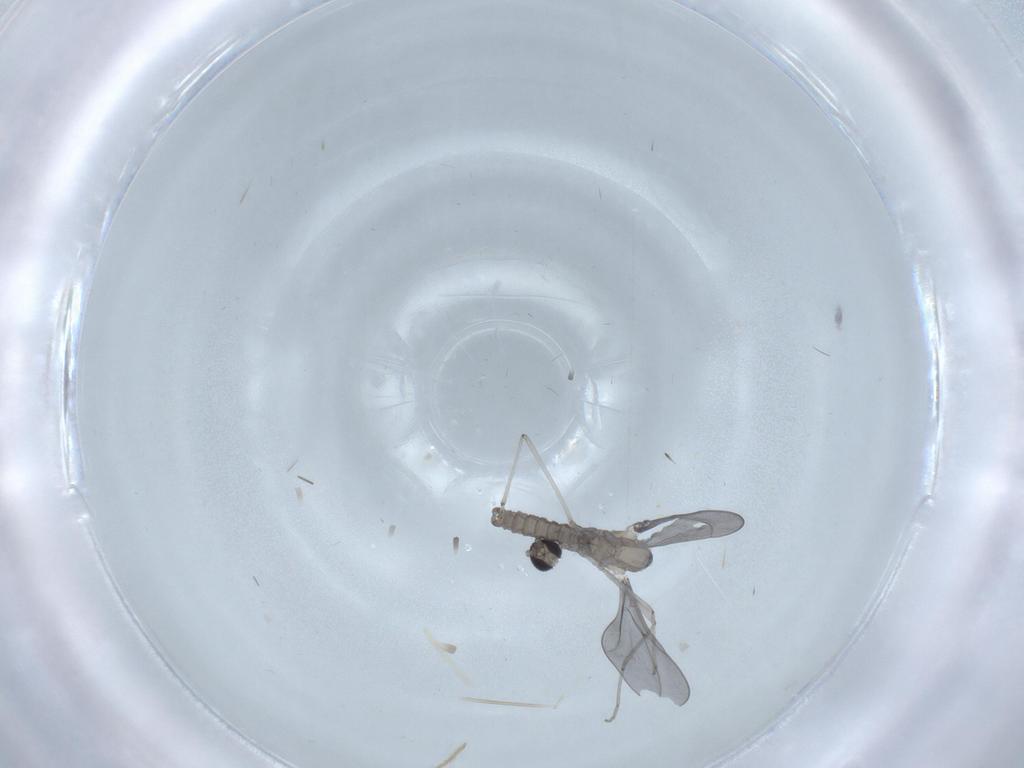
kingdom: Animalia
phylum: Arthropoda
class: Insecta
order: Diptera
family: Cecidomyiidae
